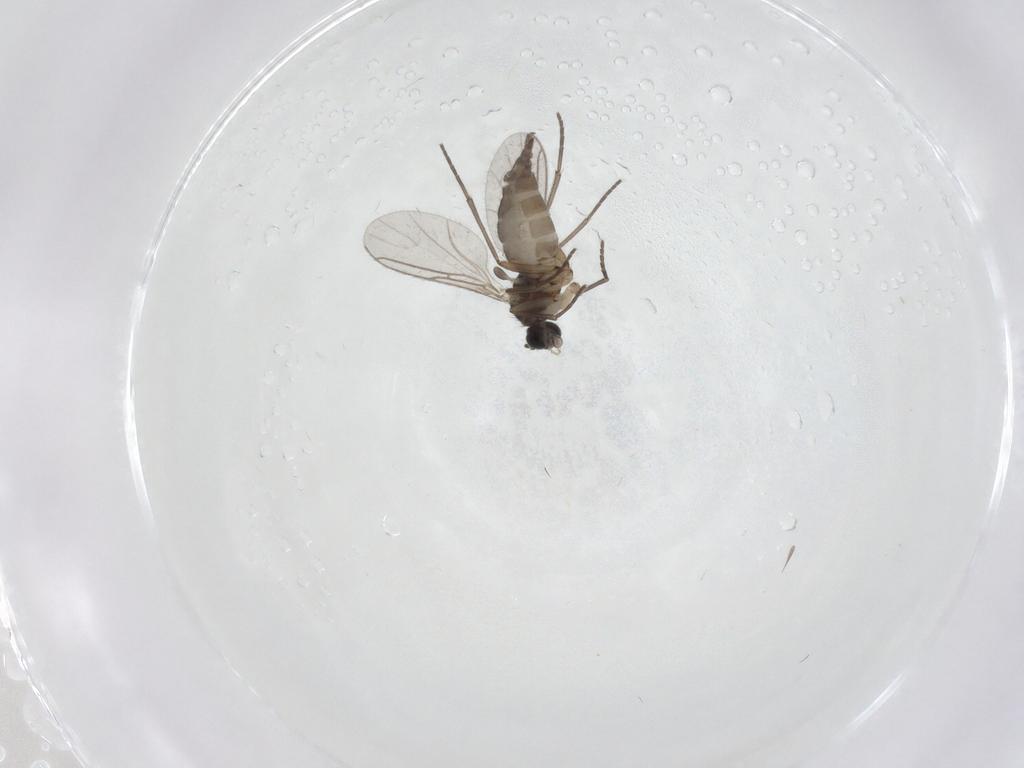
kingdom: Animalia
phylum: Arthropoda
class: Insecta
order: Diptera
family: Sciaridae
